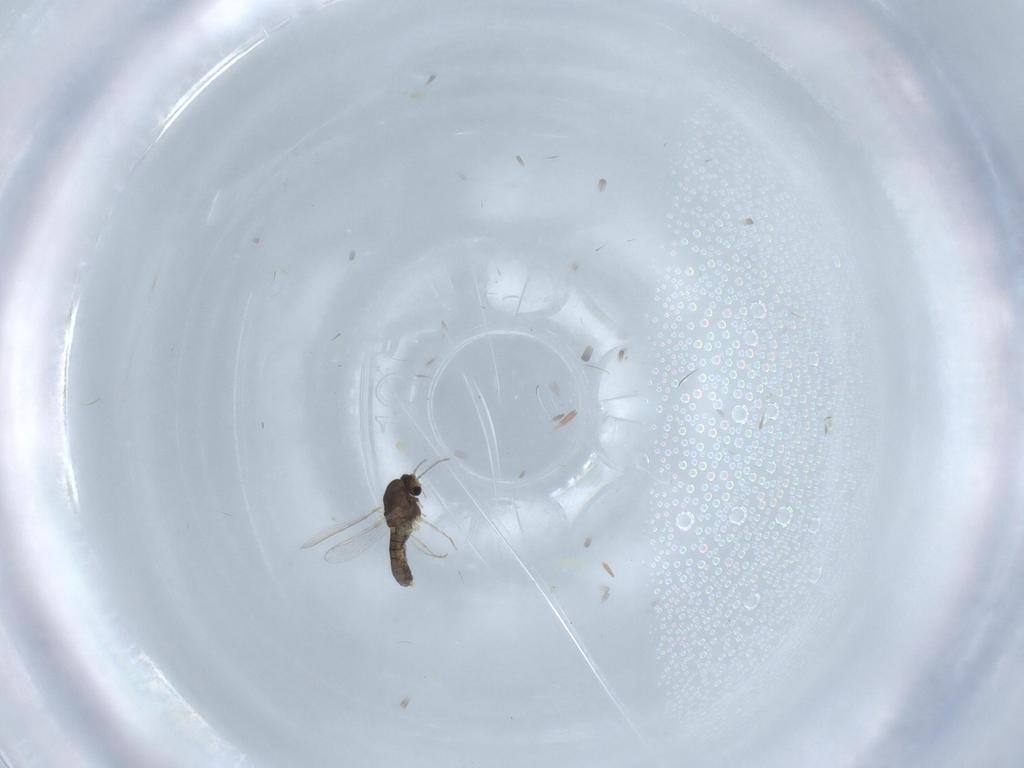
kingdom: Animalia
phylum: Arthropoda
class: Insecta
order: Diptera
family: Chironomidae
